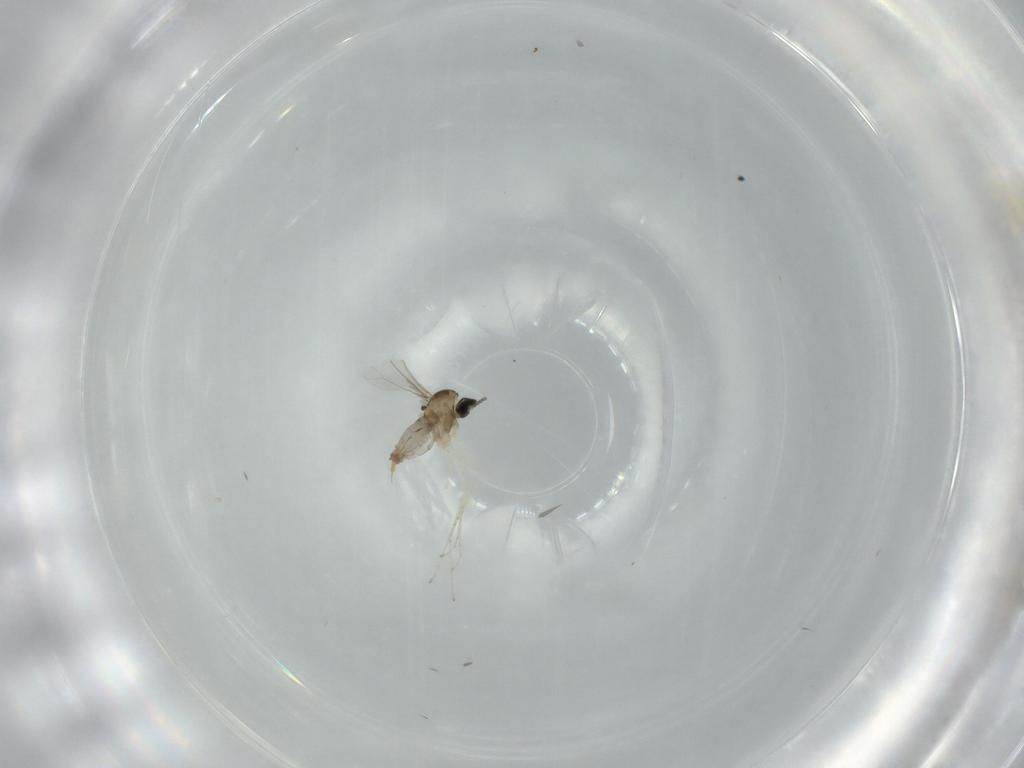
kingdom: Animalia
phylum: Arthropoda
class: Insecta
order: Diptera
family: Cecidomyiidae
